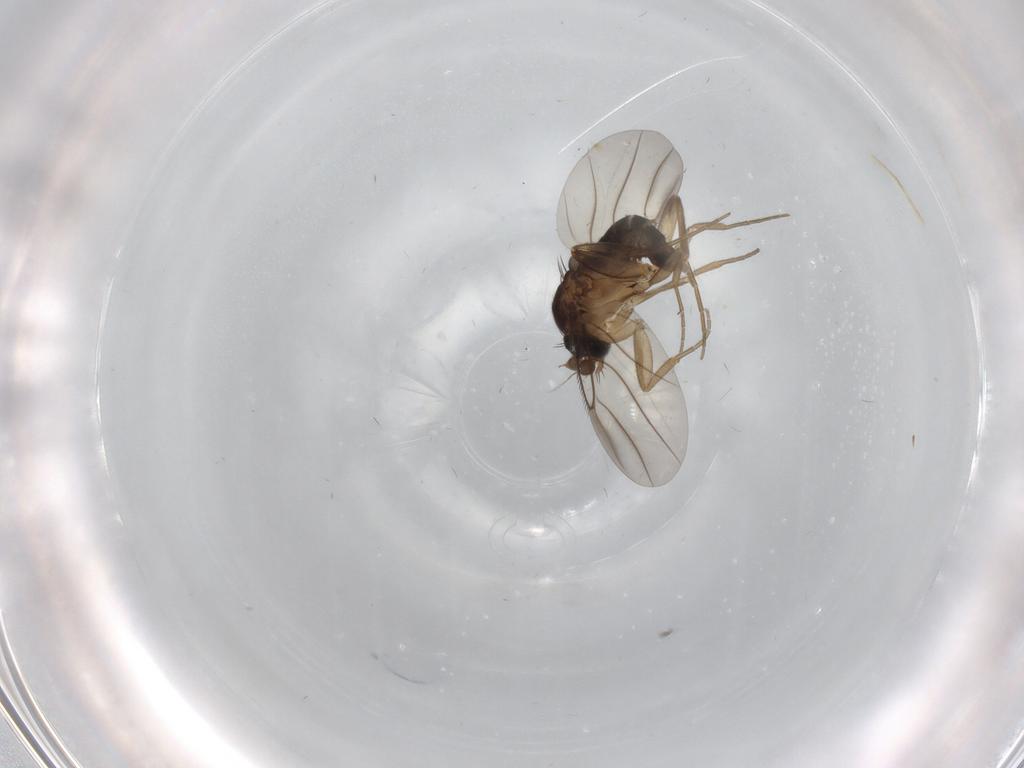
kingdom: Animalia
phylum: Arthropoda
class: Insecta
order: Diptera
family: Phoridae
